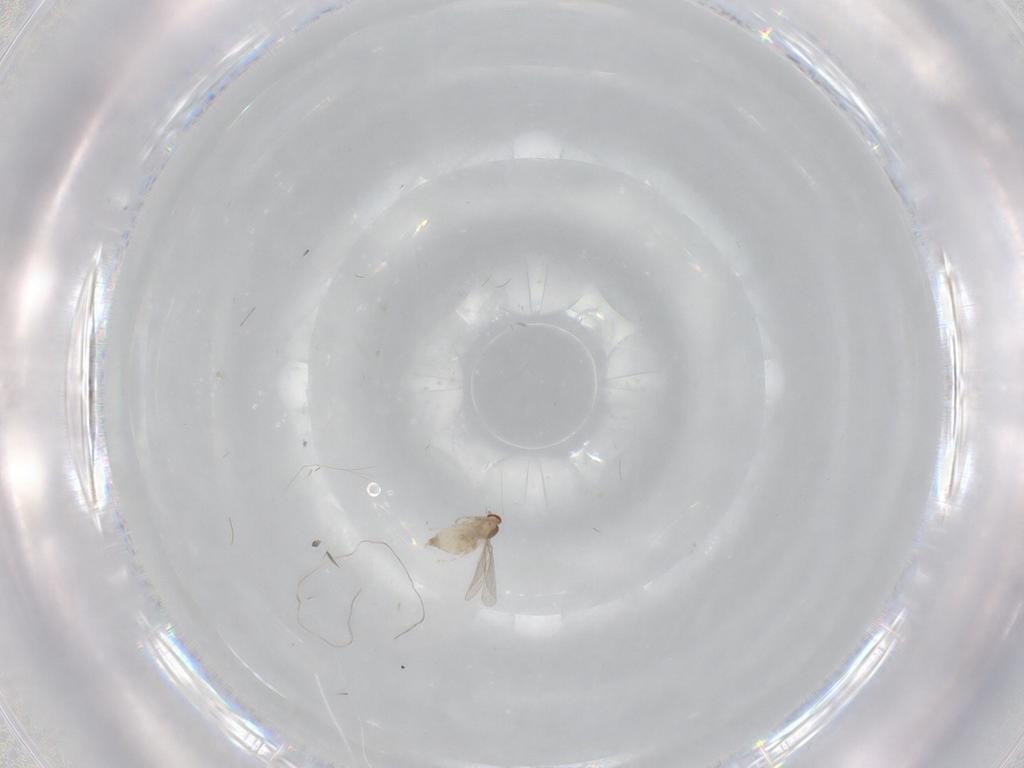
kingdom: Animalia
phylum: Arthropoda
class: Insecta
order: Diptera
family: Cecidomyiidae
